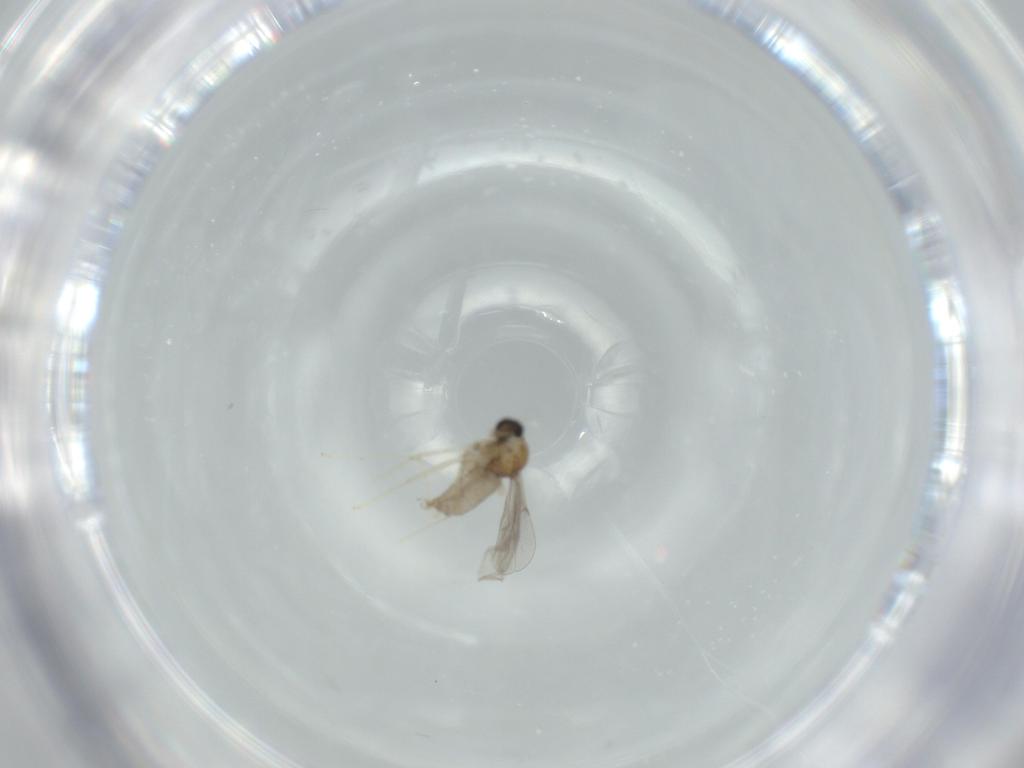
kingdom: Animalia
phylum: Arthropoda
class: Insecta
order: Diptera
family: Cecidomyiidae
